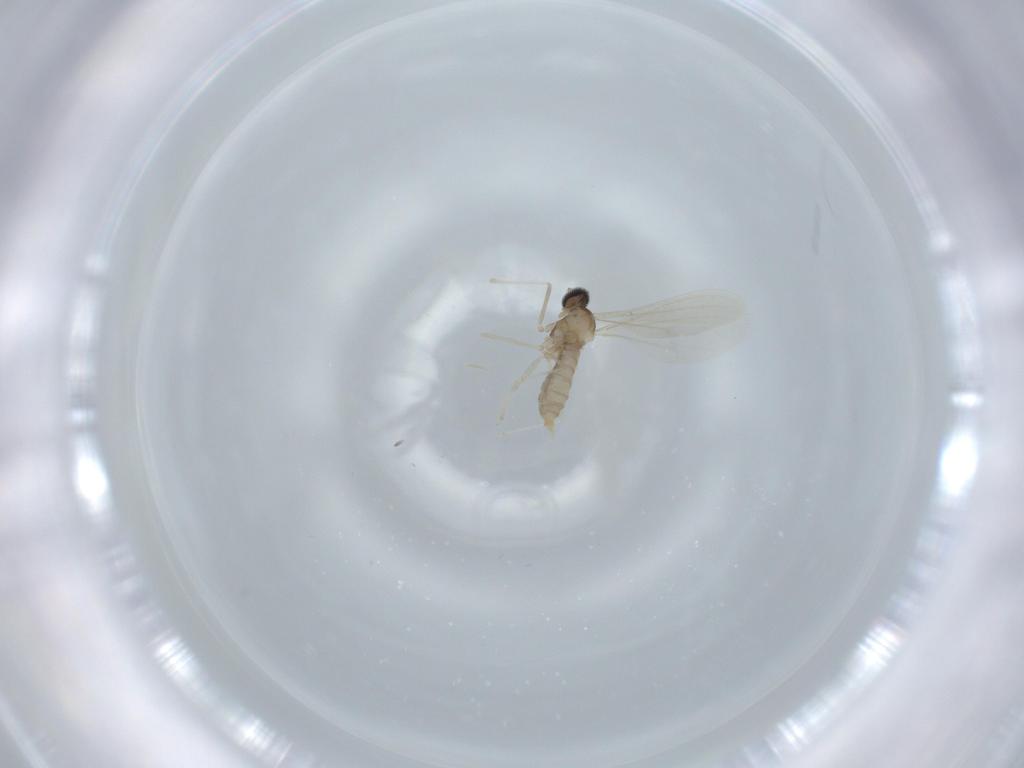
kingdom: Animalia
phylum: Arthropoda
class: Insecta
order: Diptera
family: Cecidomyiidae
